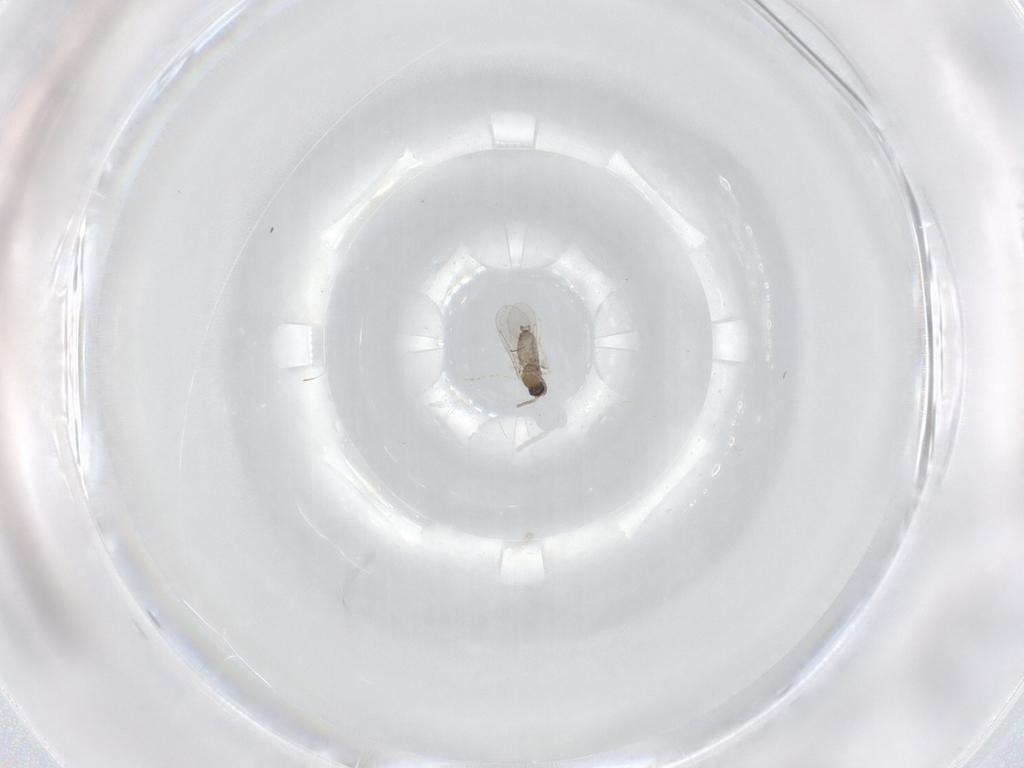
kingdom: Animalia
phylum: Arthropoda
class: Insecta
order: Diptera
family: Cecidomyiidae
